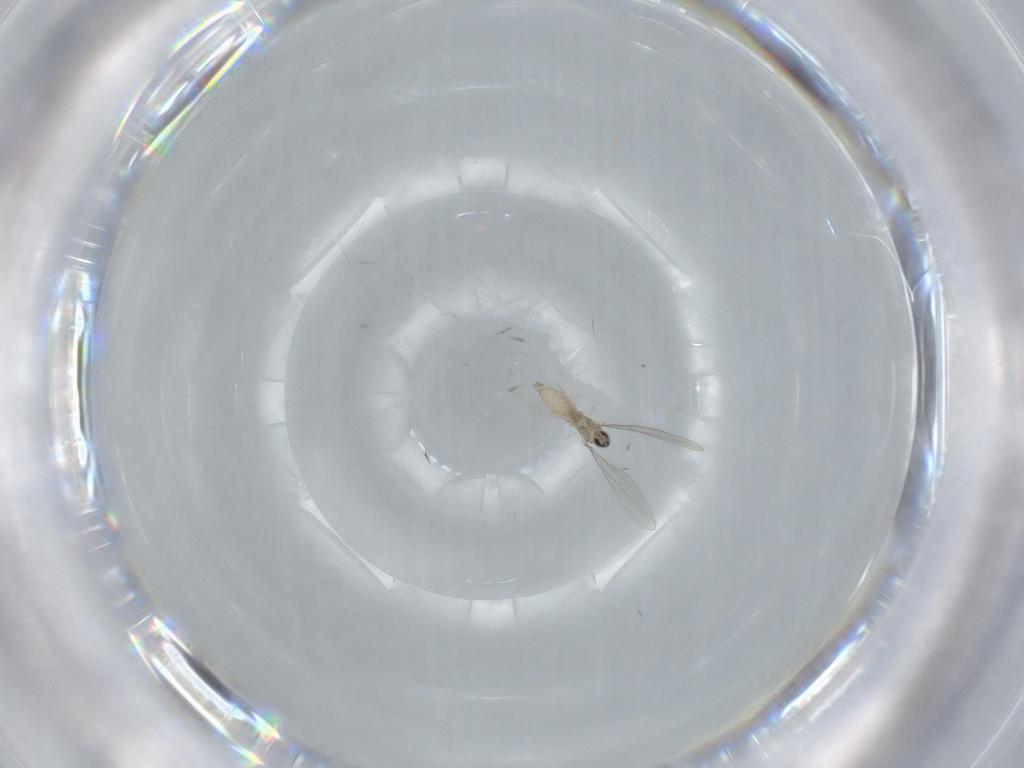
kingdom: Animalia
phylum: Arthropoda
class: Insecta
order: Diptera
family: Cecidomyiidae
